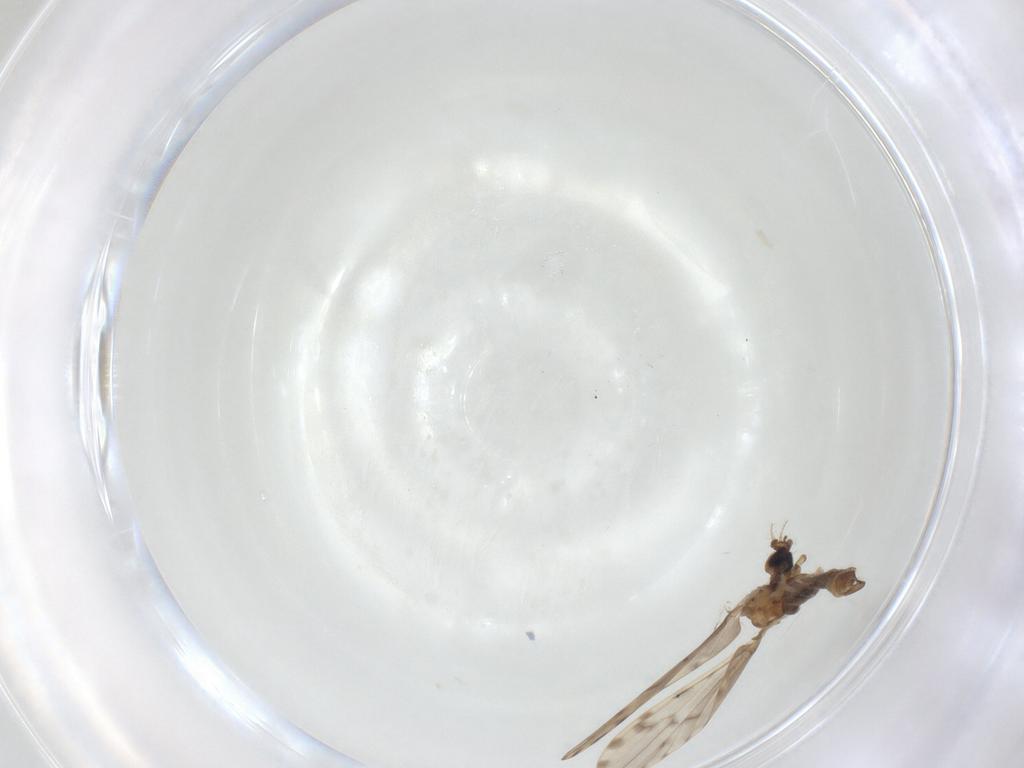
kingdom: Animalia
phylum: Arthropoda
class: Insecta
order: Diptera
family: Limoniidae
